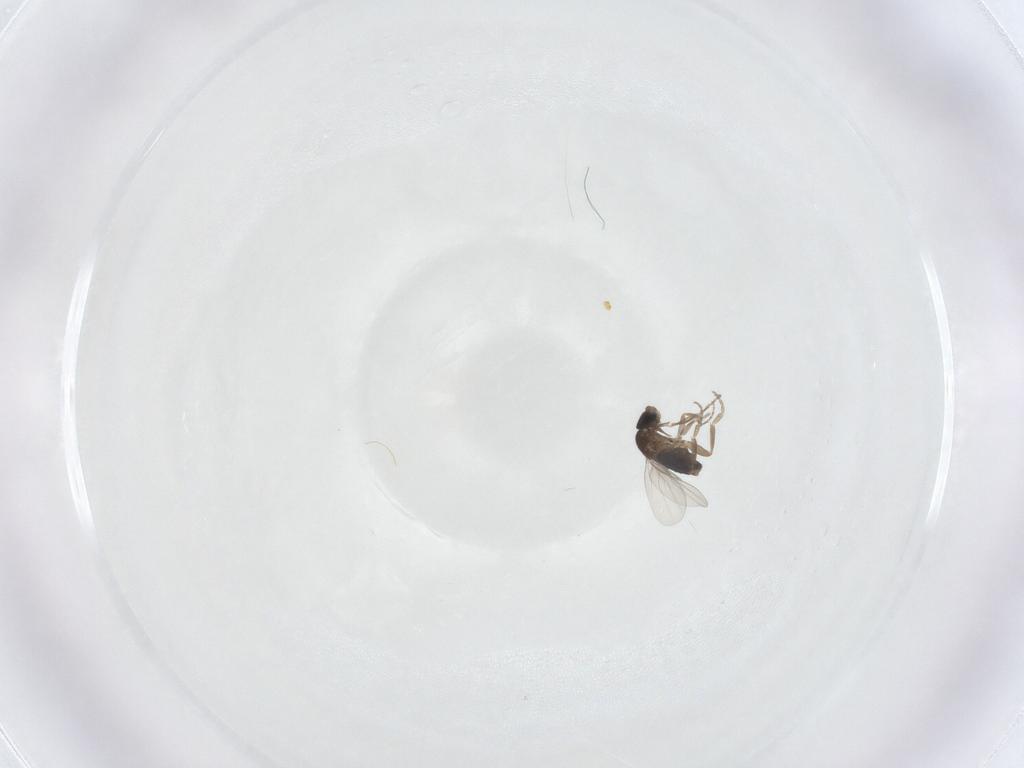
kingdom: Animalia
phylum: Arthropoda
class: Insecta
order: Diptera
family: Phoridae
